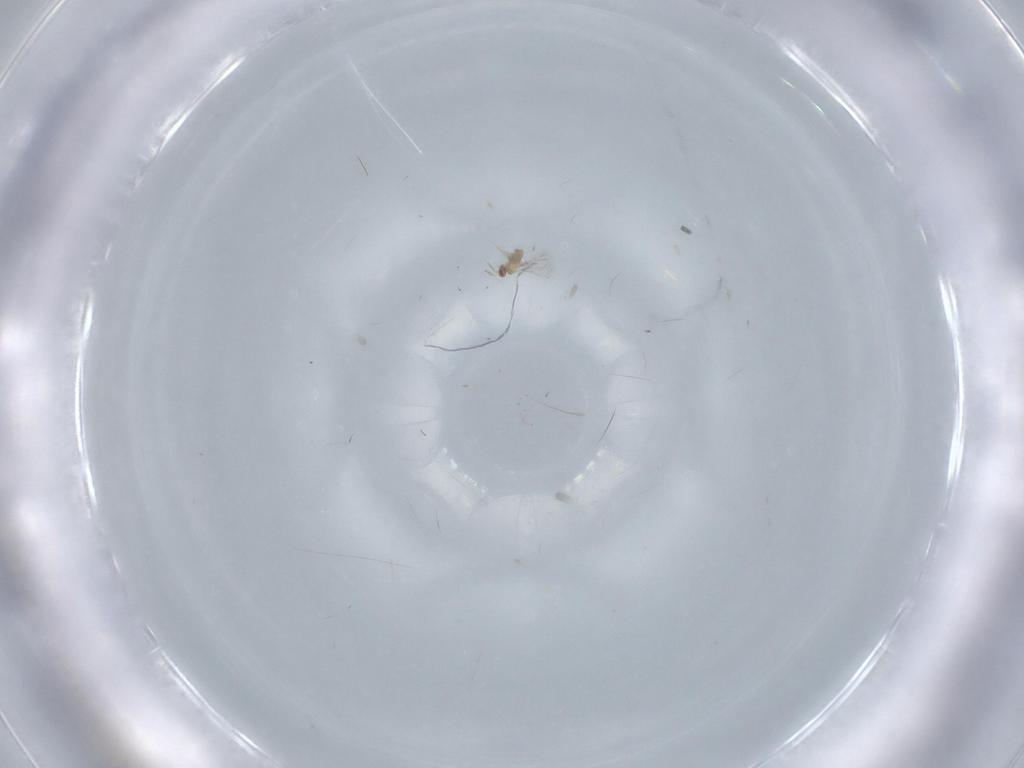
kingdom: Animalia
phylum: Arthropoda
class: Insecta
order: Hymenoptera
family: Trichogrammatidae
